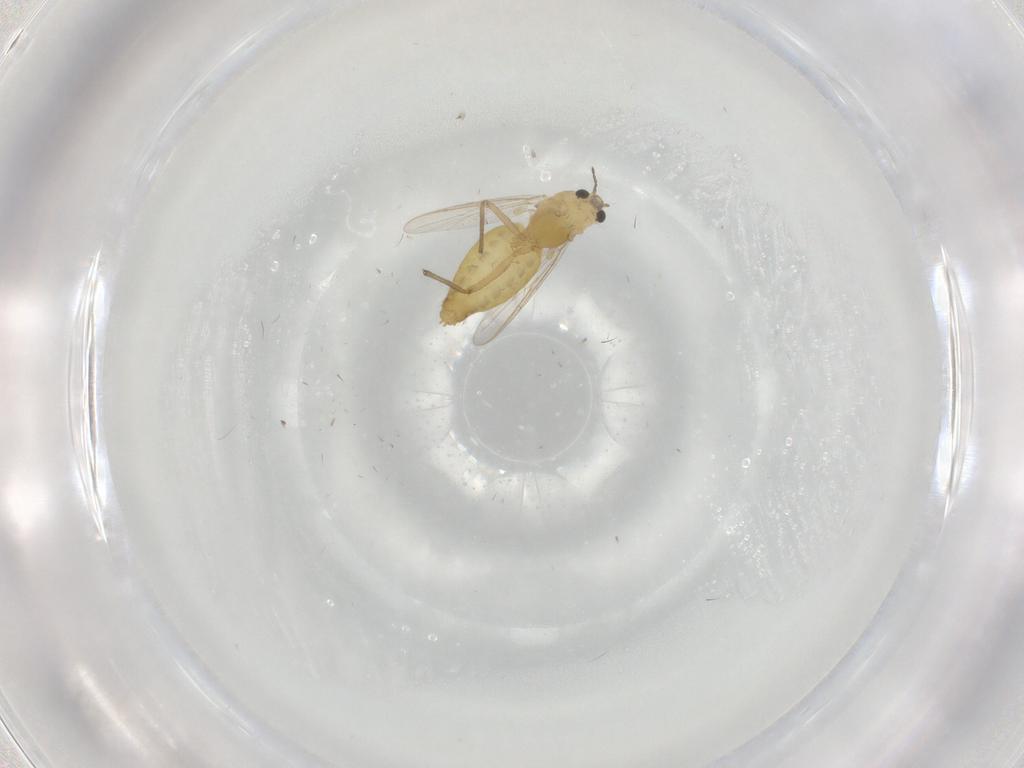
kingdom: Animalia
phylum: Arthropoda
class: Insecta
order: Diptera
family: Chironomidae
